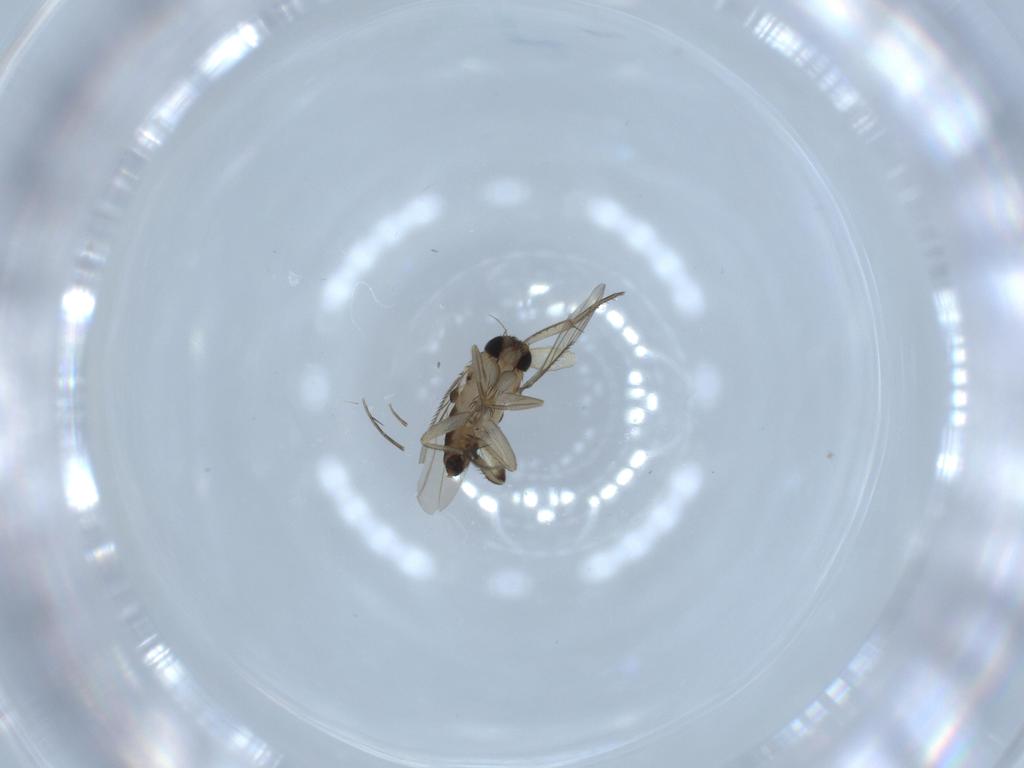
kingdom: Animalia
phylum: Arthropoda
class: Insecta
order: Diptera
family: Phoridae
